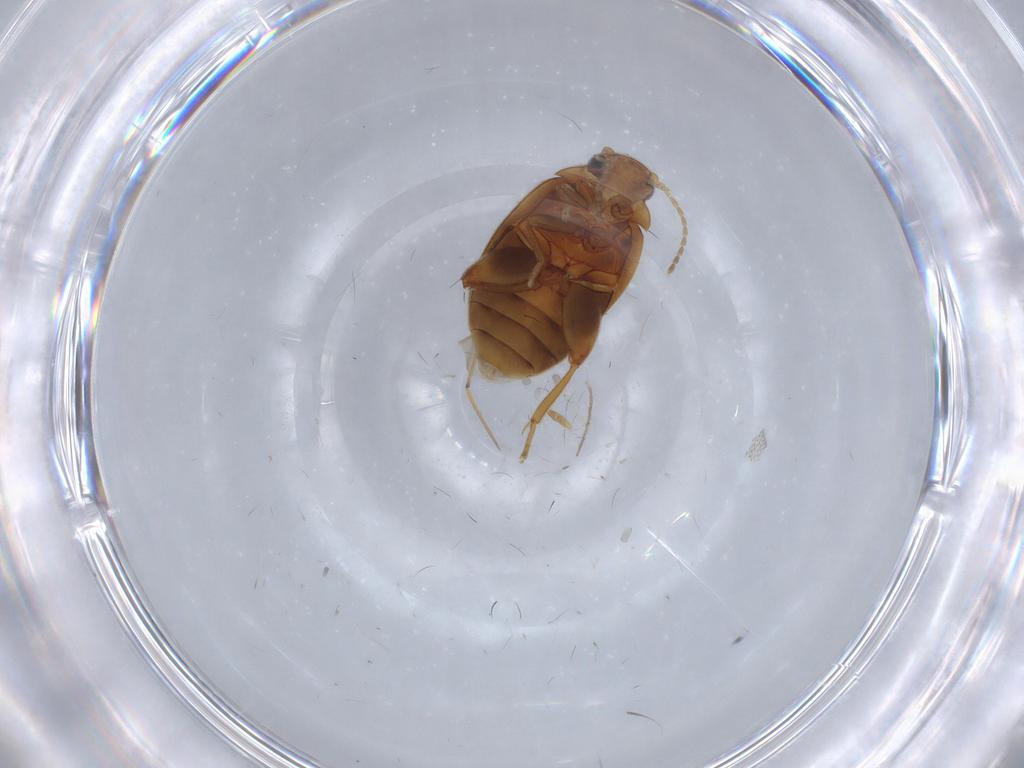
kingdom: Animalia
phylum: Arthropoda
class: Insecta
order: Coleoptera
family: Scirtidae
